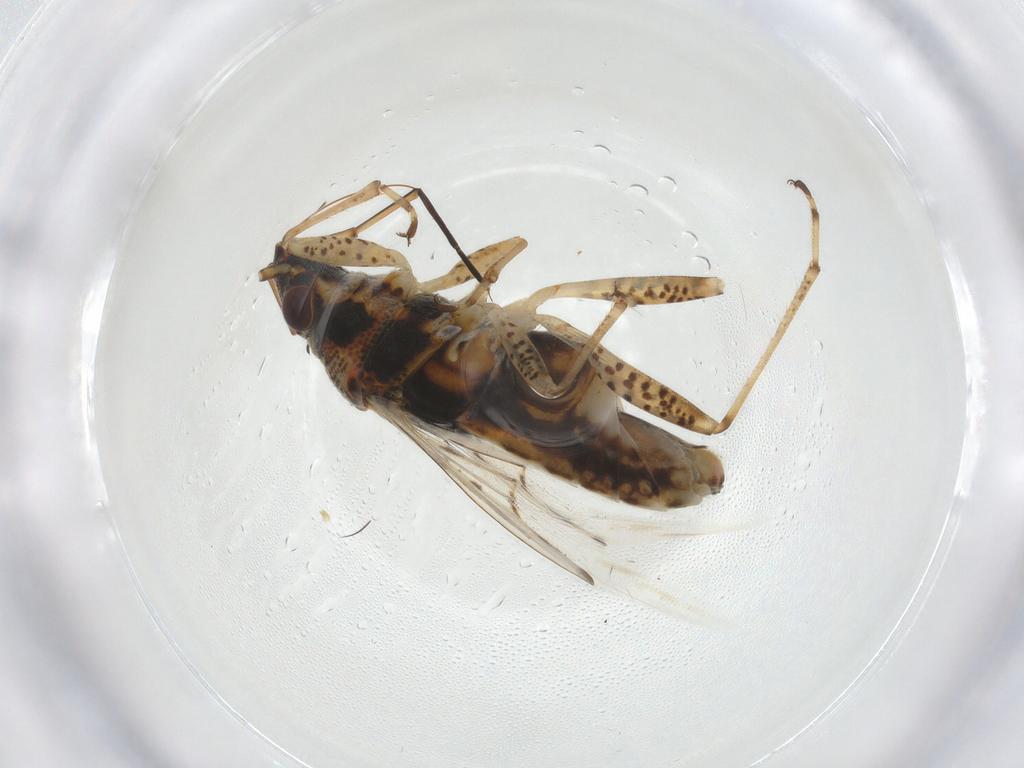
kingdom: Animalia
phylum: Arthropoda
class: Insecta
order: Hemiptera
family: Lygaeidae
